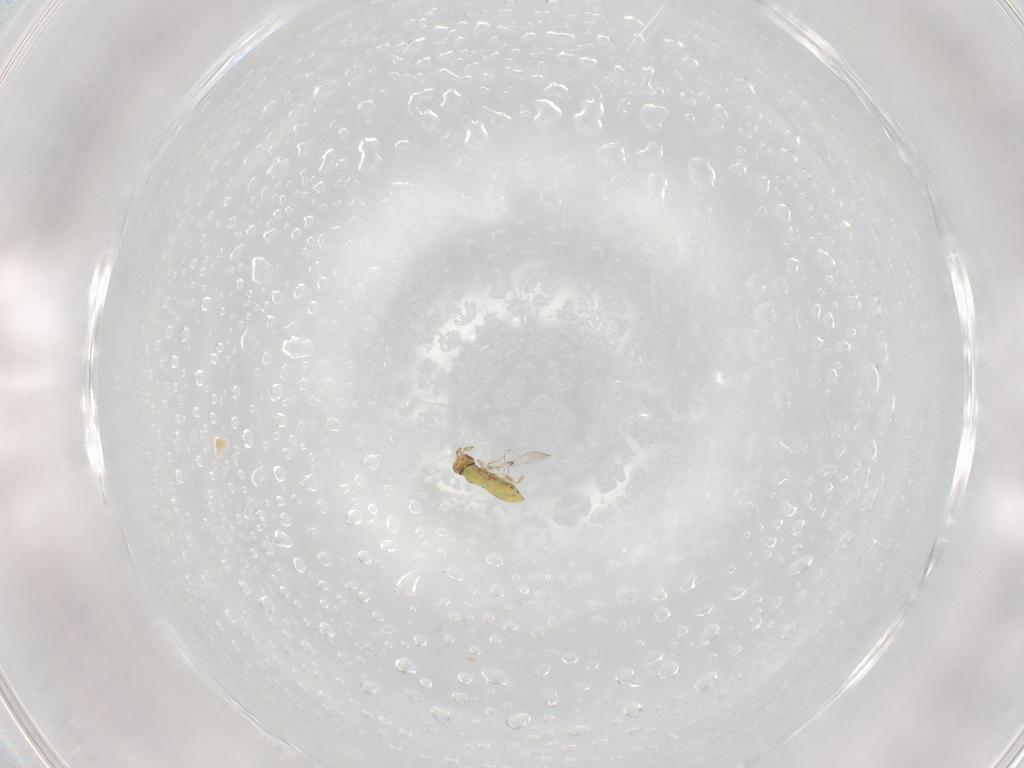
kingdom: Animalia
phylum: Arthropoda
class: Insecta
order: Hymenoptera
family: Trichogrammatidae
